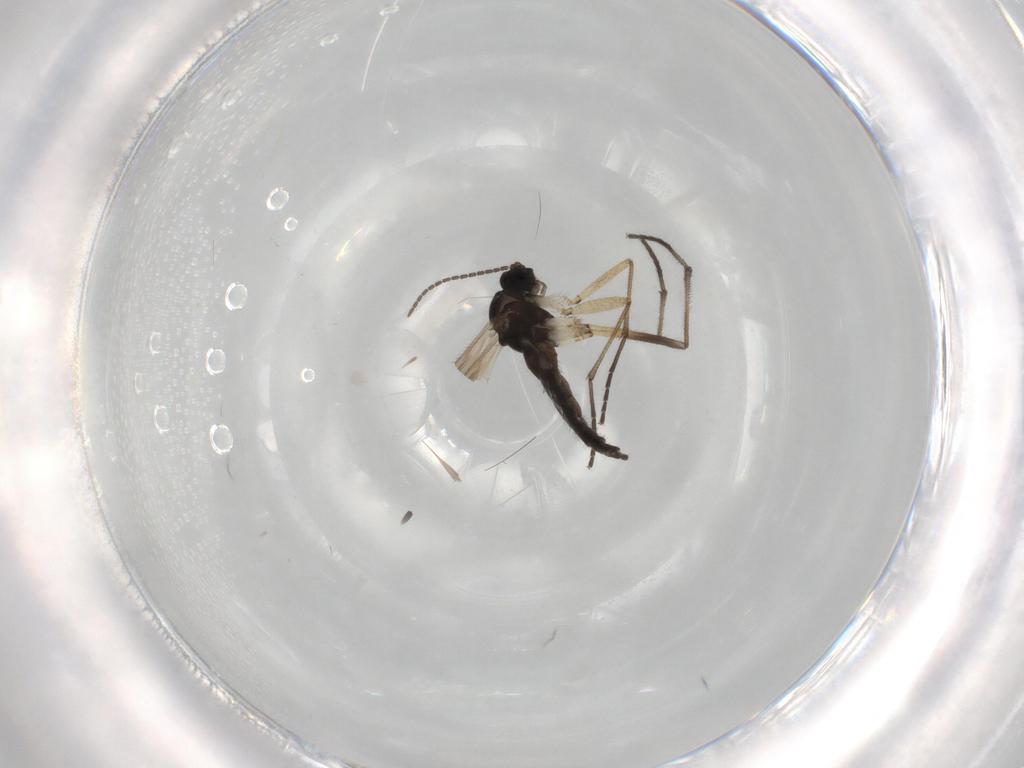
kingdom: Animalia
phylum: Arthropoda
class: Insecta
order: Diptera
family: Sciaridae
